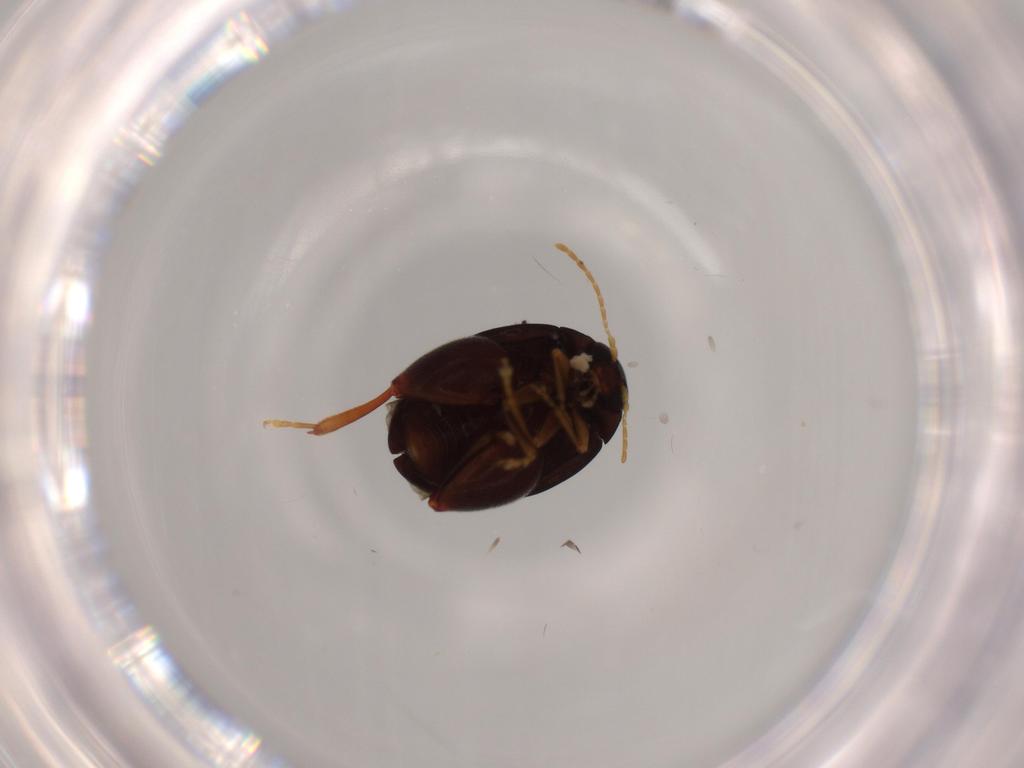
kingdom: Animalia
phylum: Arthropoda
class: Insecta
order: Coleoptera
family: Chrysomelidae
